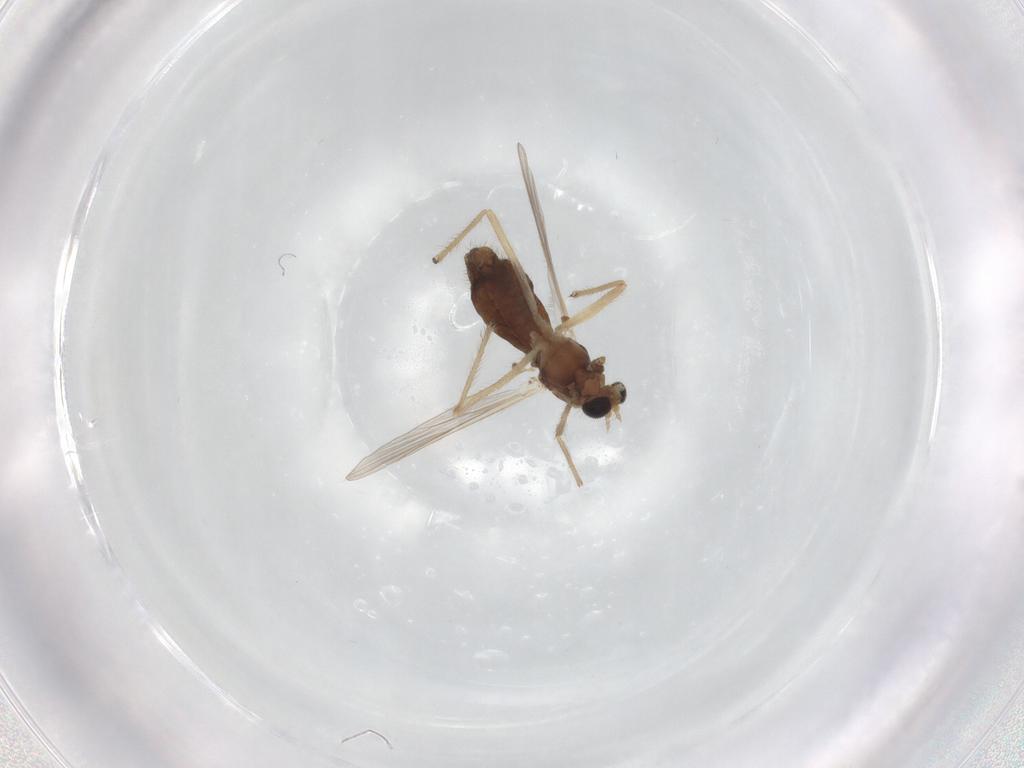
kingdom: Animalia
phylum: Arthropoda
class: Insecta
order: Diptera
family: Chironomidae
